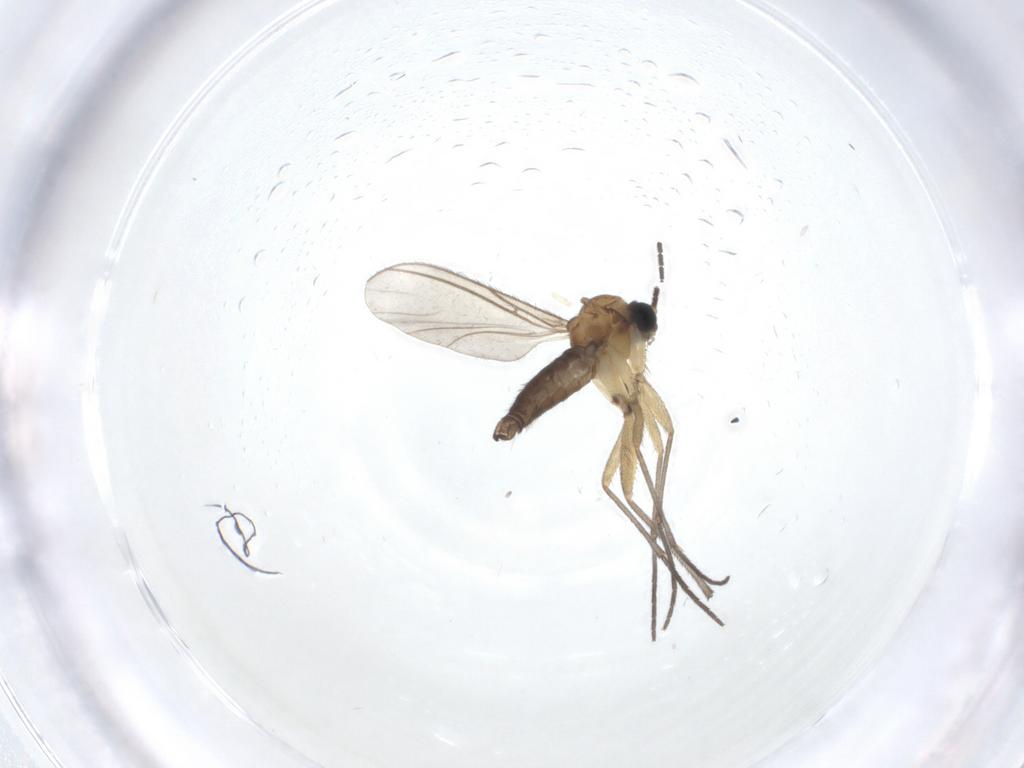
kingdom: Animalia
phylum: Arthropoda
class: Insecta
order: Diptera
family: Sciaridae
